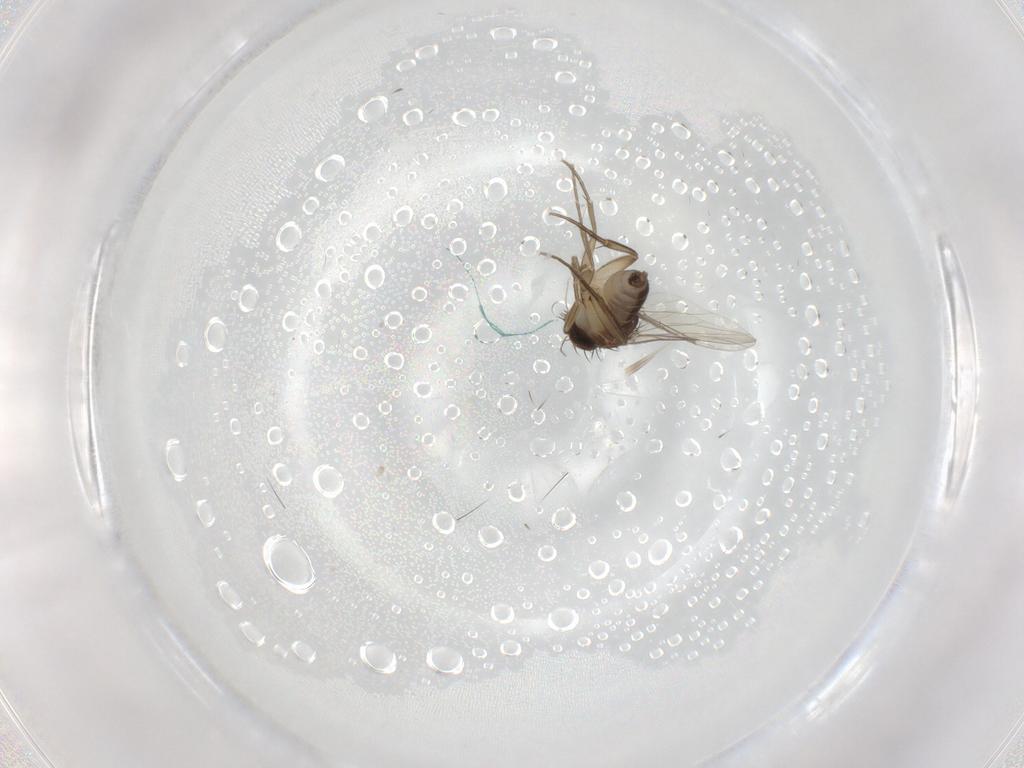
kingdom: Animalia
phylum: Arthropoda
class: Insecta
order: Diptera
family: Phoridae
